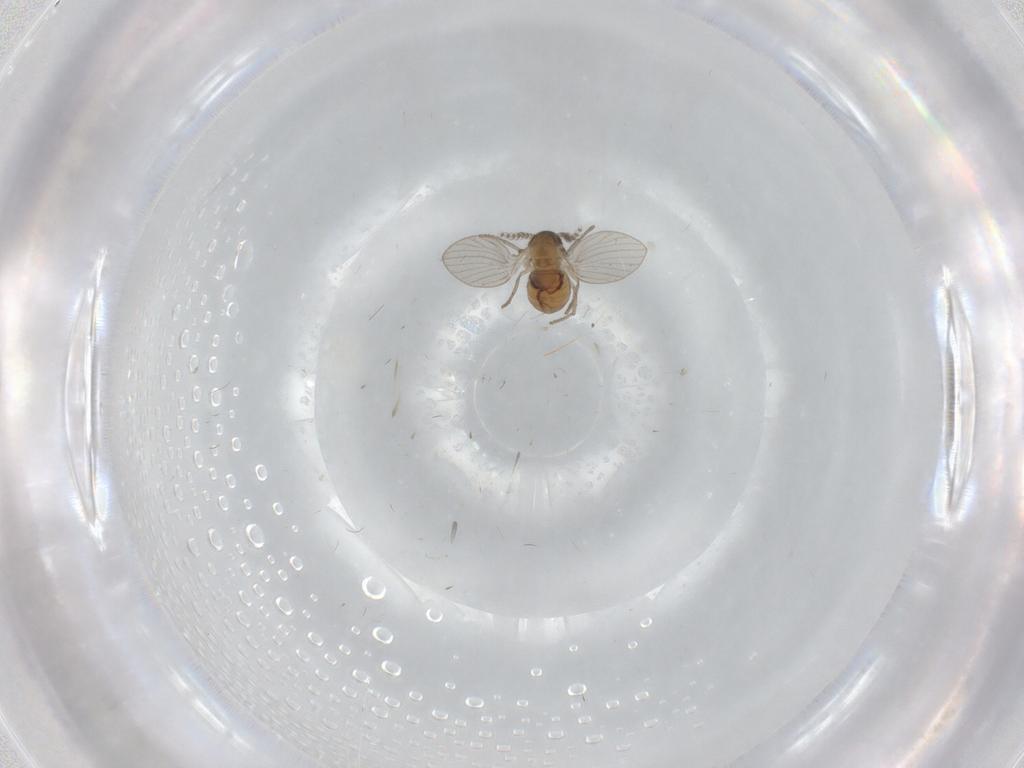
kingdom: Animalia
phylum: Arthropoda
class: Insecta
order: Diptera
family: Psychodidae
